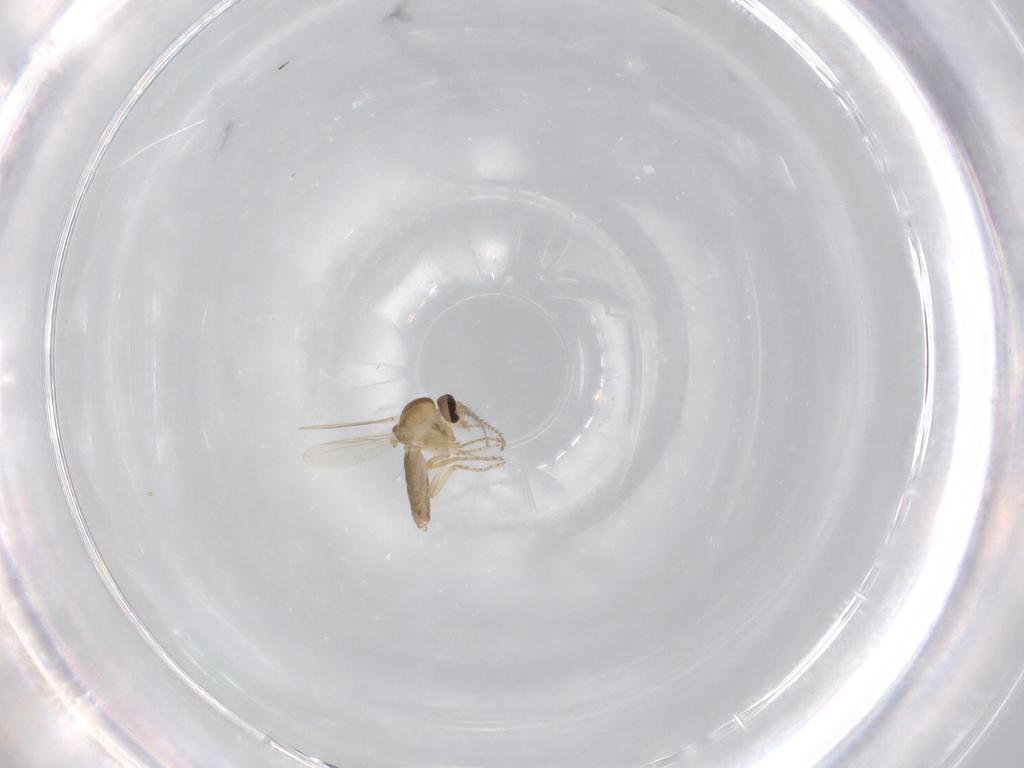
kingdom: Animalia
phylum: Arthropoda
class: Insecta
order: Diptera
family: Ceratopogonidae
